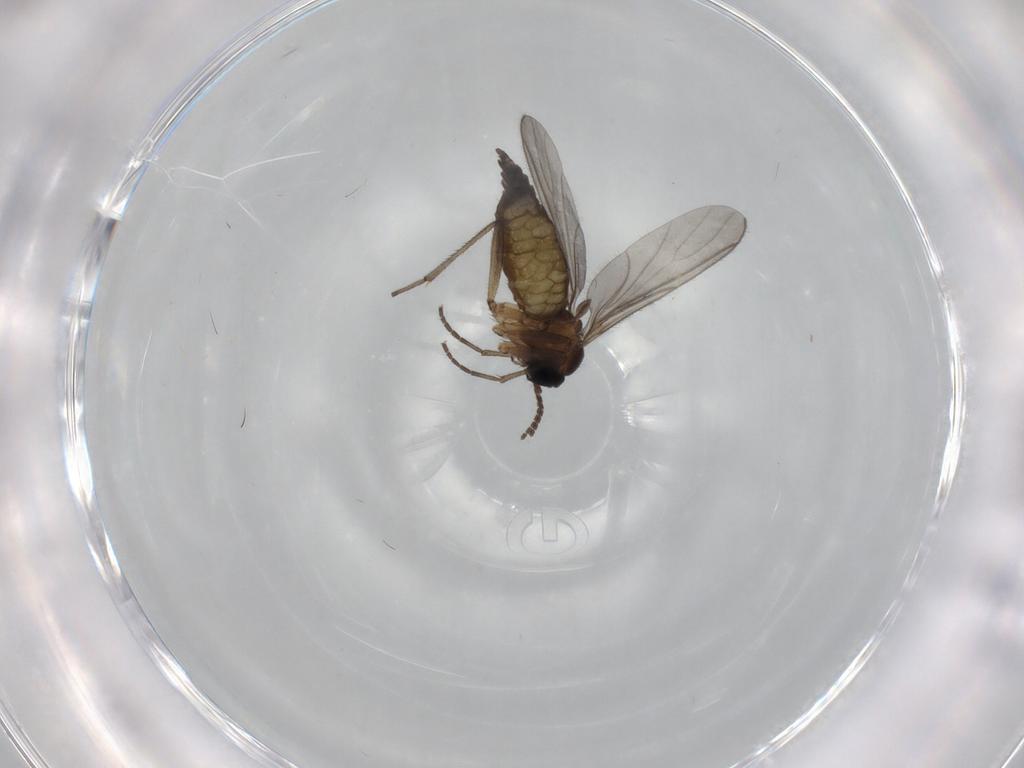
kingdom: Animalia
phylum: Arthropoda
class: Insecta
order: Diptera
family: Sciaridae
